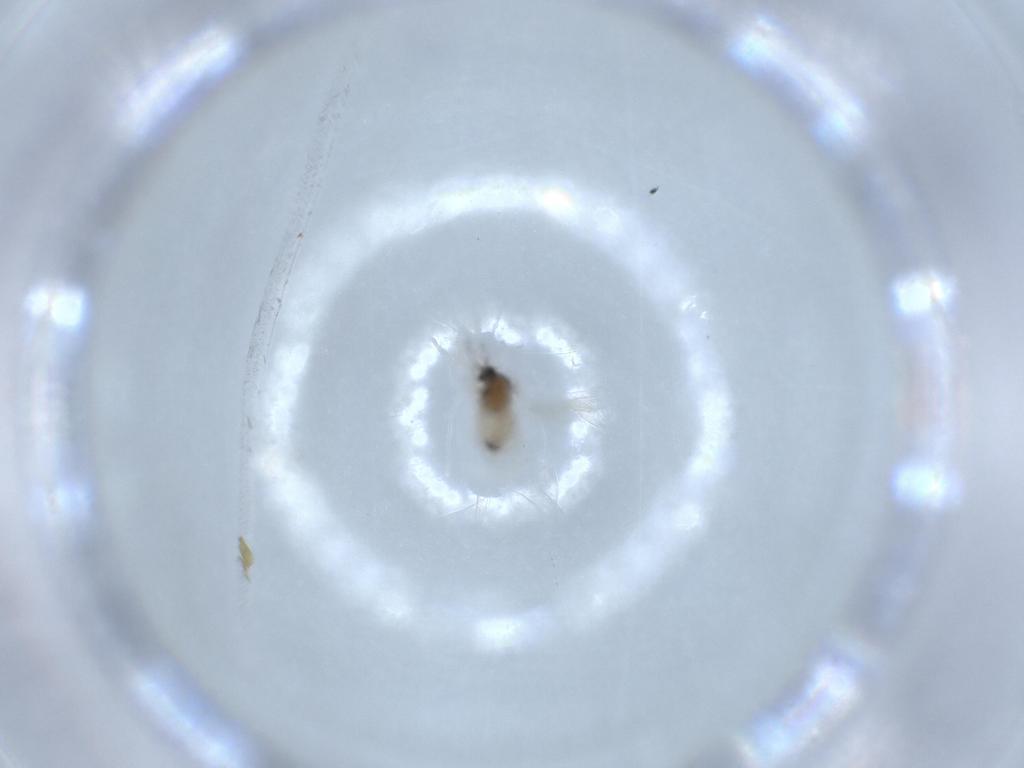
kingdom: Animalia
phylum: Arthropoda
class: Insecta
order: Diptera
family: Cecidomyiidae
